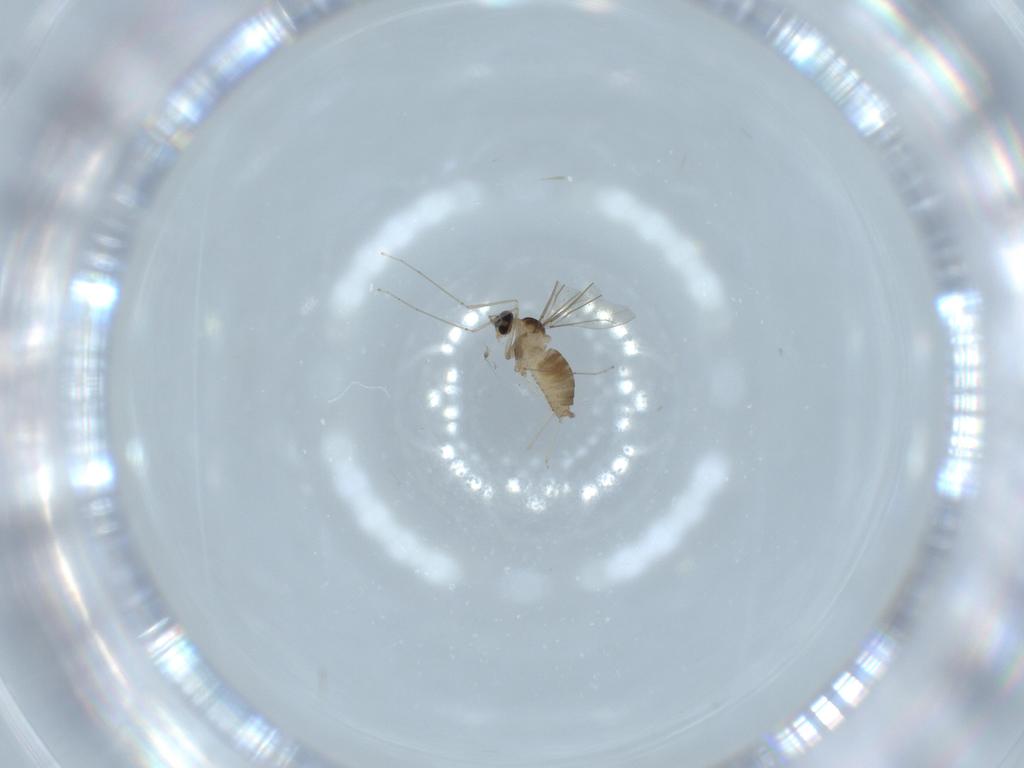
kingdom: Animalia
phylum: Arthropoda
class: Insecta
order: Diptera
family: Cecidomyiidae
